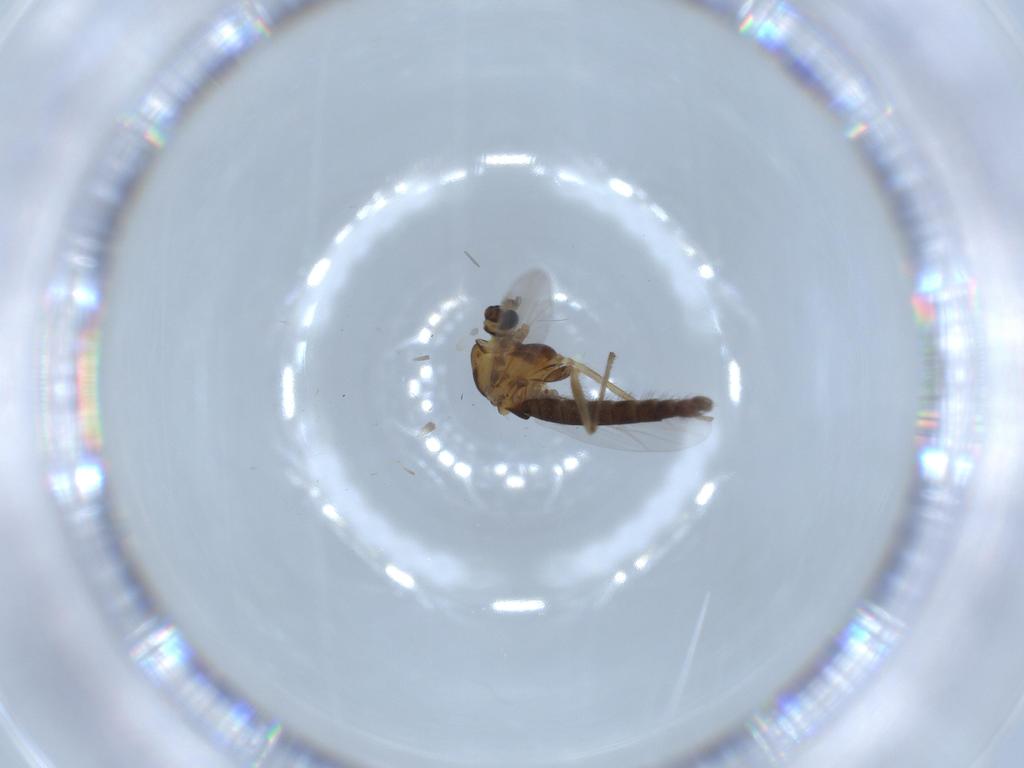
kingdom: Animalia
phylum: Arthropoda
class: Insecta
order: Diptera
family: Chironomidae
